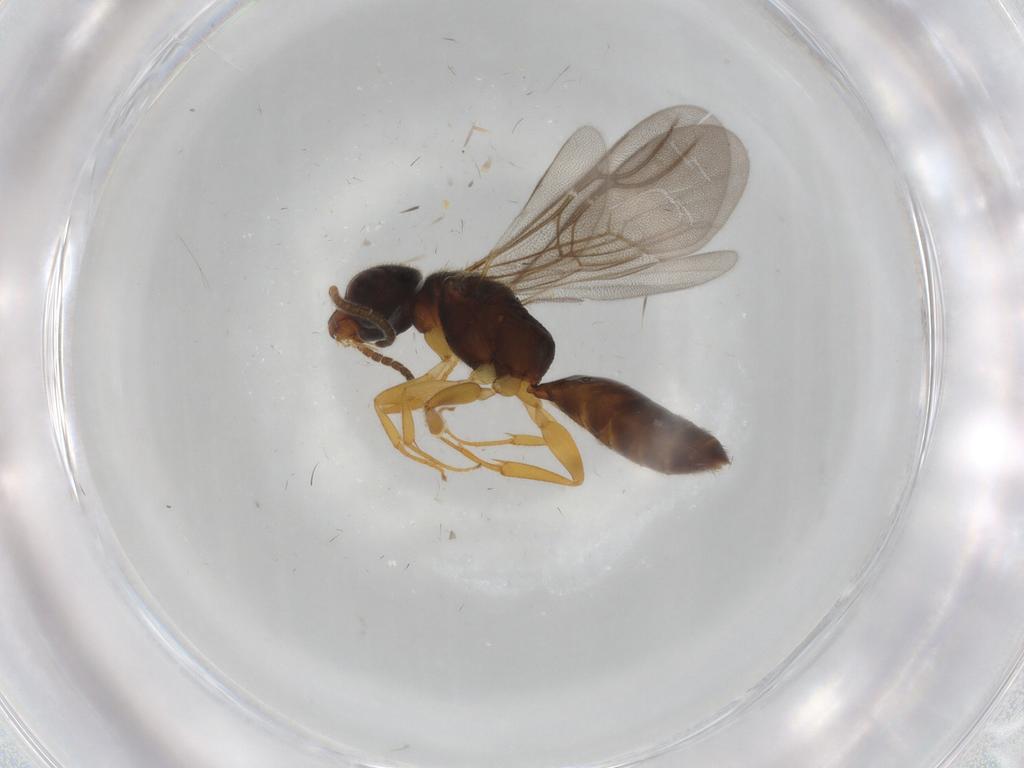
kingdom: Animalia
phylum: Arthropoda
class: Insecta
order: Hymenoptera
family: Bethylidae
